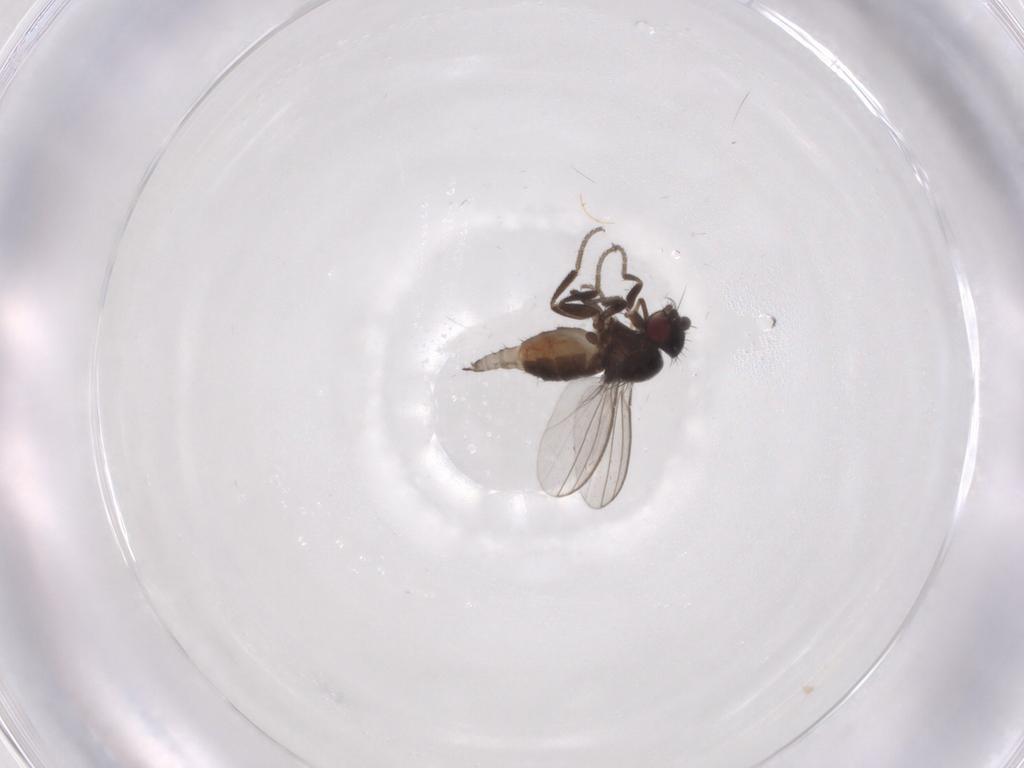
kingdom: Animalia
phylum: Arthropoda
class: Insecta
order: Diptera
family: Milichiidae
